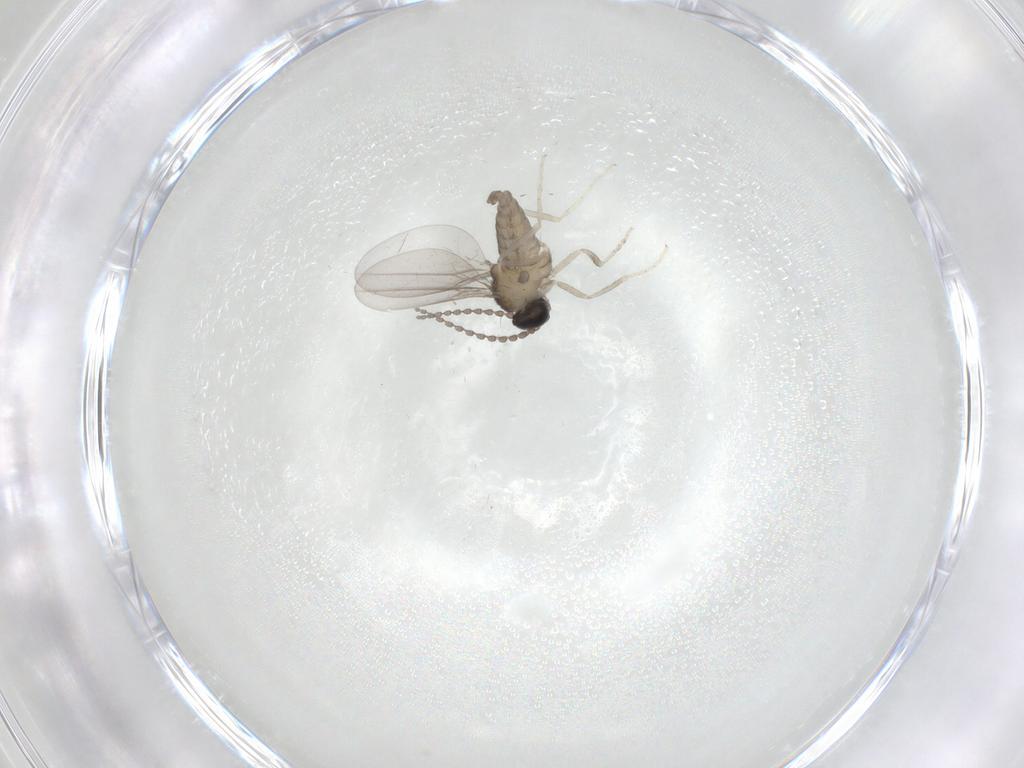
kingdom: Animalia
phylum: Arthropoda
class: Insecta
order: Diptera
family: Cecidomyiidae
